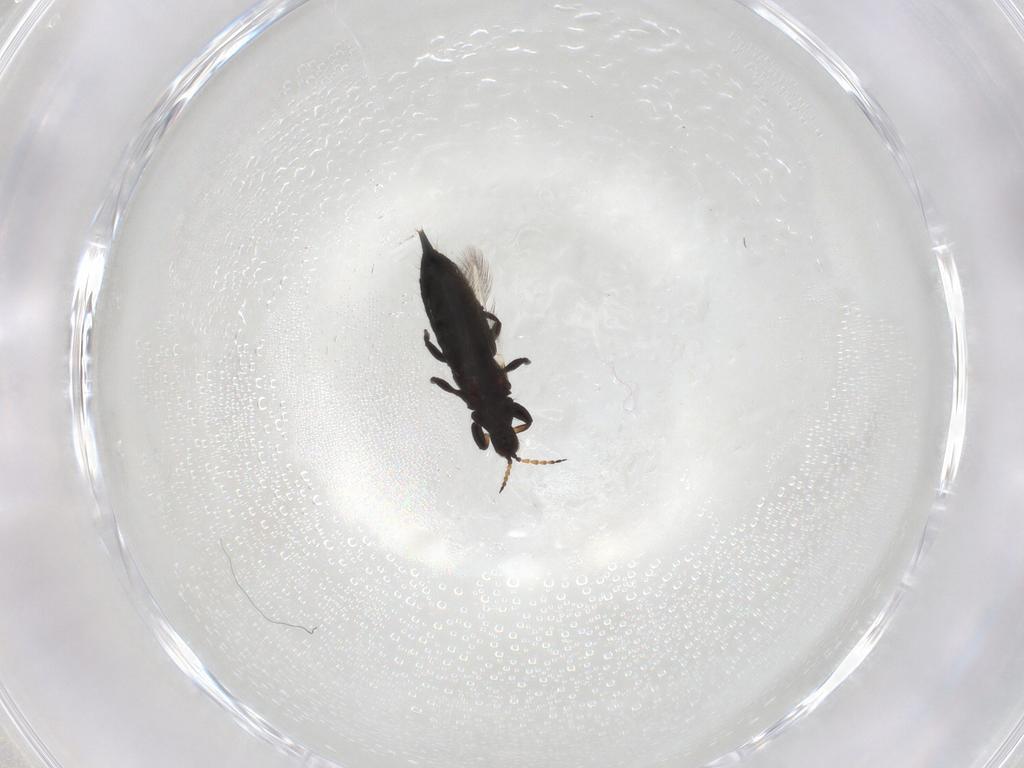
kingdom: Animalia
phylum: Arthropoda
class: Insecta
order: Thysanoptera
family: Phlaeothripidae
